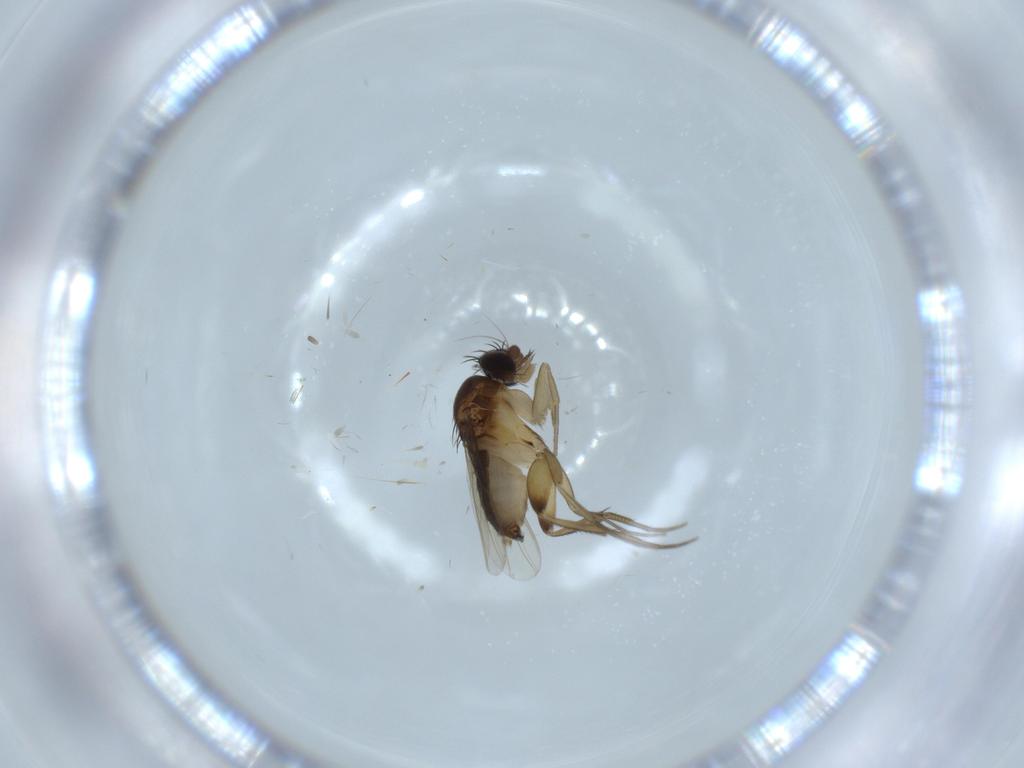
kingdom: Animalia
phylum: Arthropoda
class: Insecta
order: Diptera
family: Phoridae
